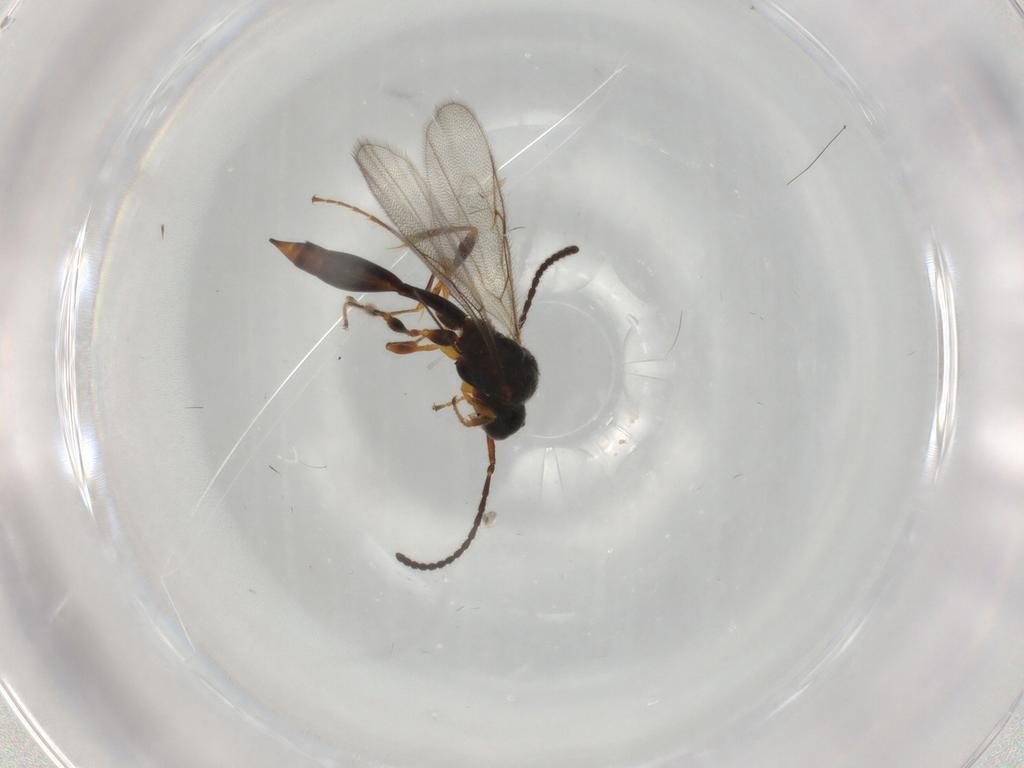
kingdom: Animalia
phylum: Arthropoda
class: Insecta
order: Hymenoptera
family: Diapriidae
